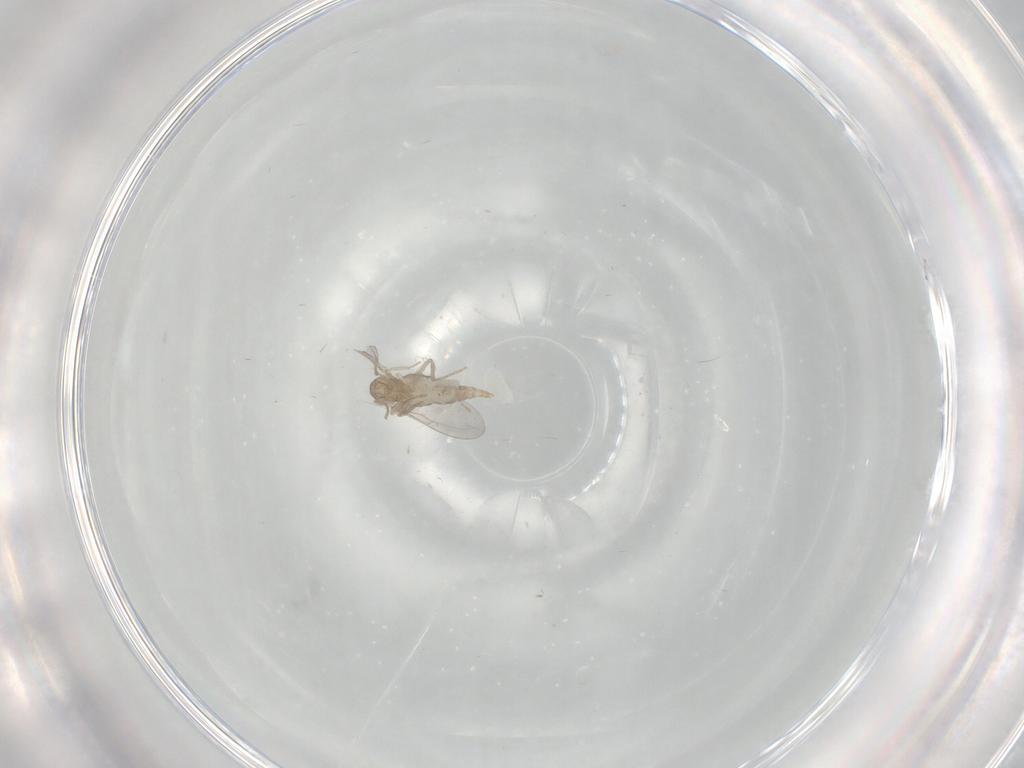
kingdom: Animalia
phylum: Arthropoda
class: Insecta
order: Diptera
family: Cecidomyiidae
